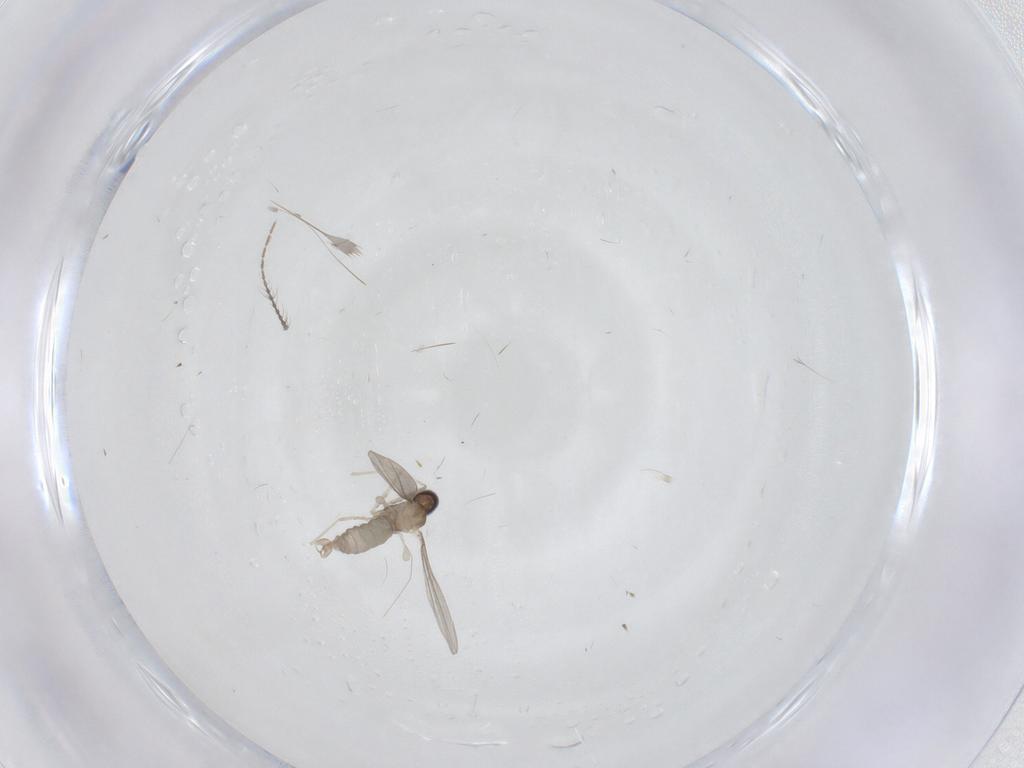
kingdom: Animalia
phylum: Arthropoda
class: Insecta
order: Diptera
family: Cecidomyiidae
